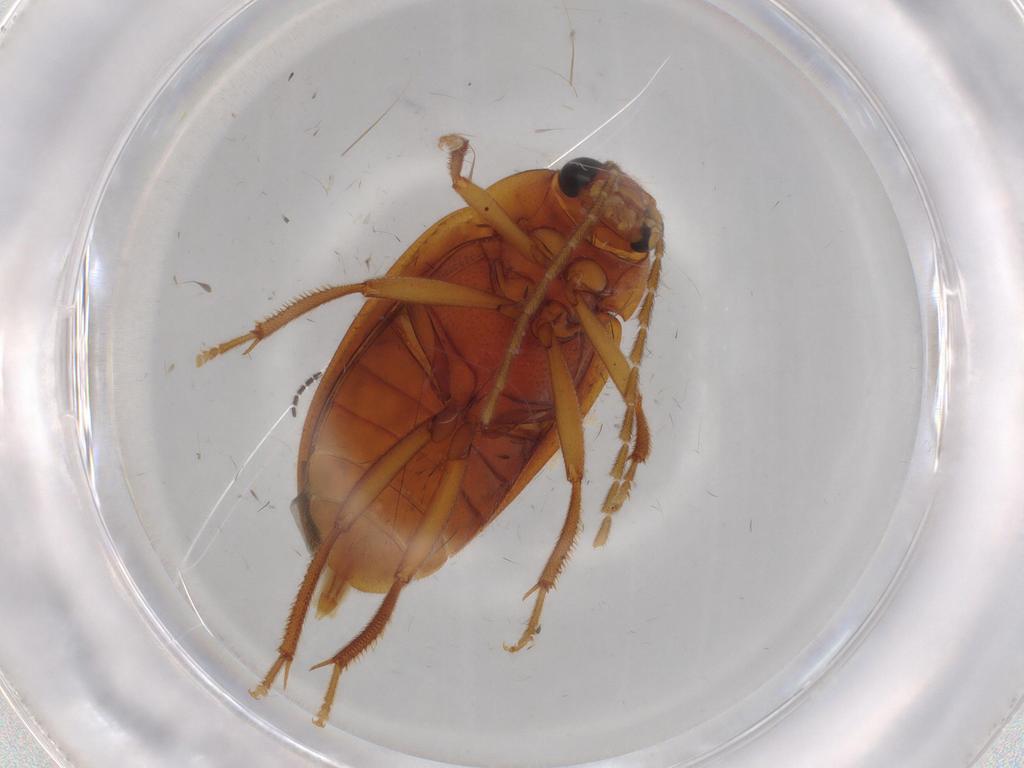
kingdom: Animalia
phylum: Arthropoda
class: Insecta
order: Coleoptera
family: Ptilodactylidae
